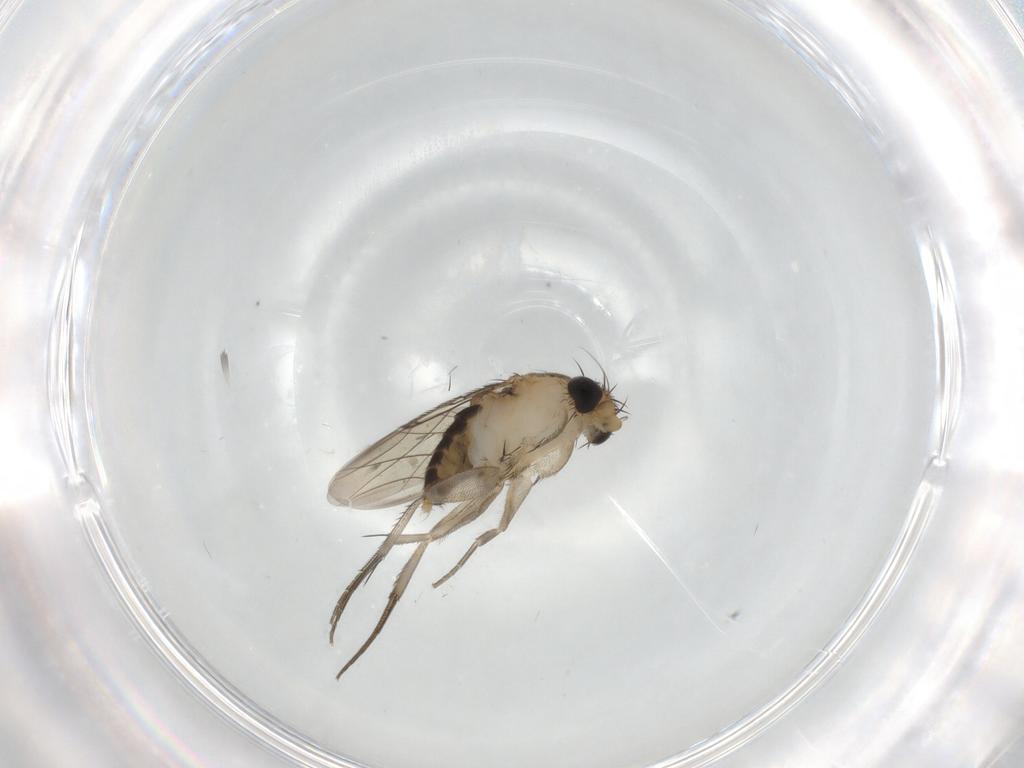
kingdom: Animalia
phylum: Arthropoda
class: Insecta
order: Diptera
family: Phoridae
